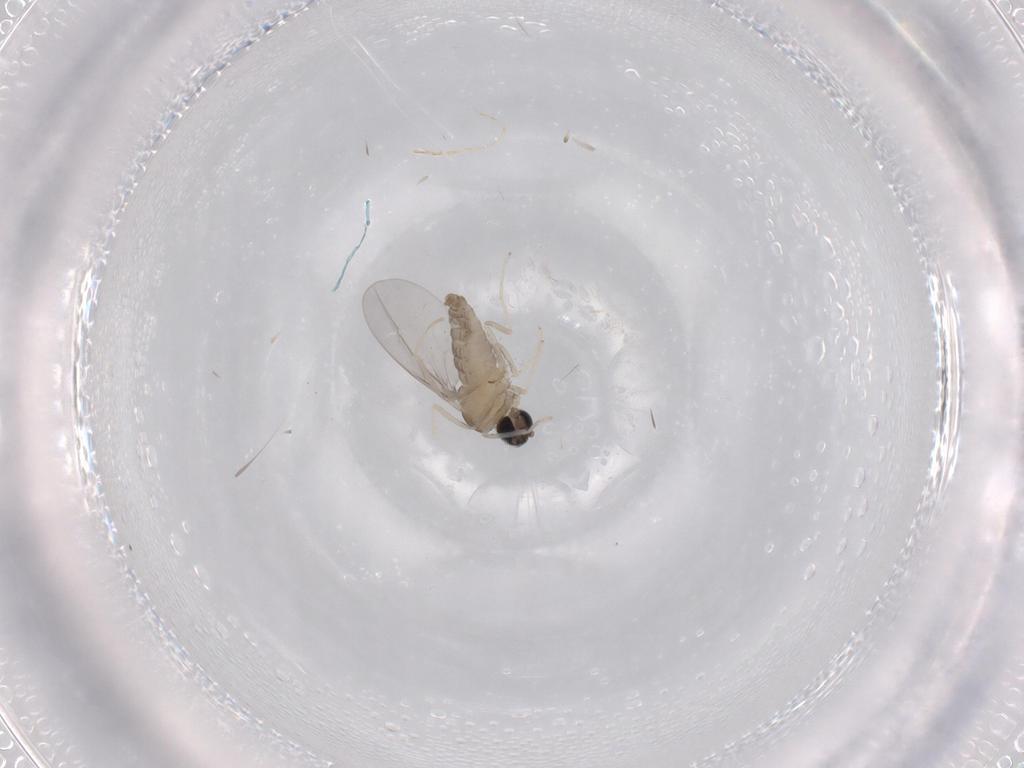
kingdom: Animalia
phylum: Arthropoda
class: Insecta
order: Diptera
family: Cecidomyiidae
